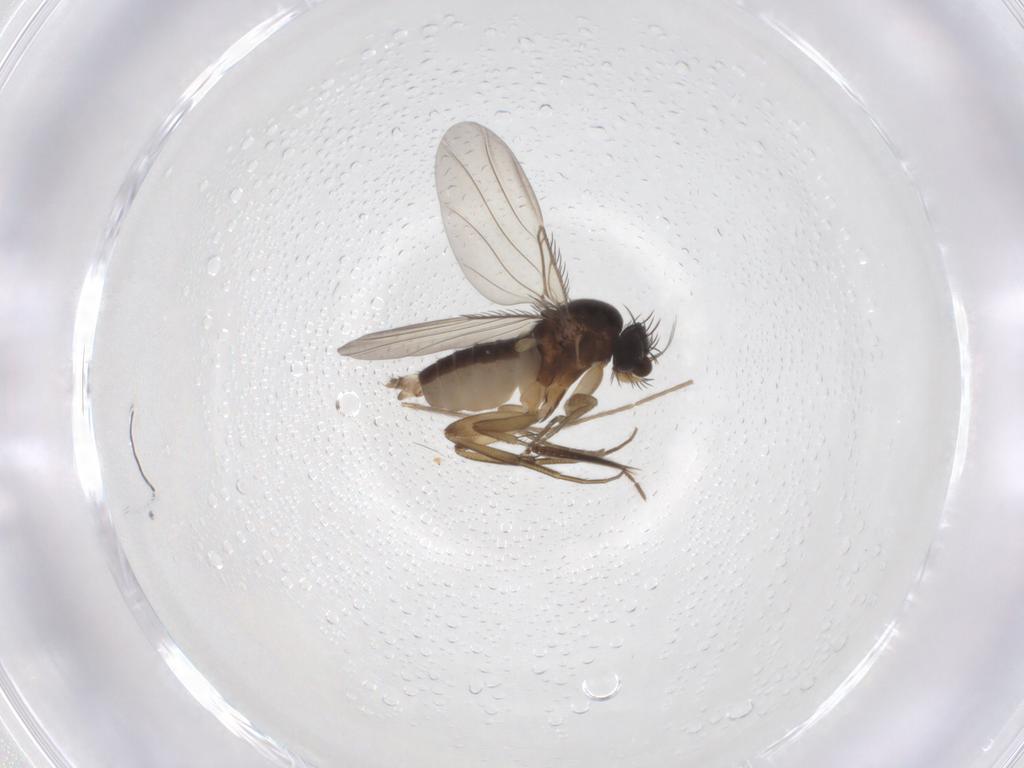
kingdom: Animalia
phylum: Arthropoda
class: Insecta
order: Diptera
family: Phoridae
